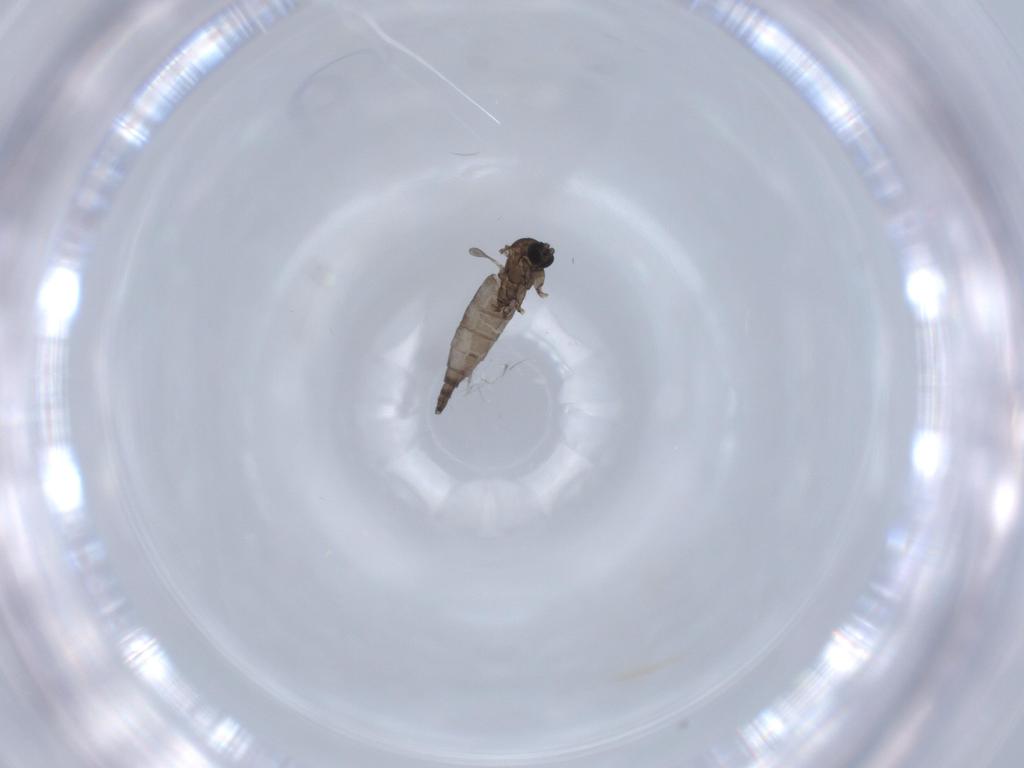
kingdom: Animalia
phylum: Arthropoda
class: Insecta
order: Diptera
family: Sciaridae
